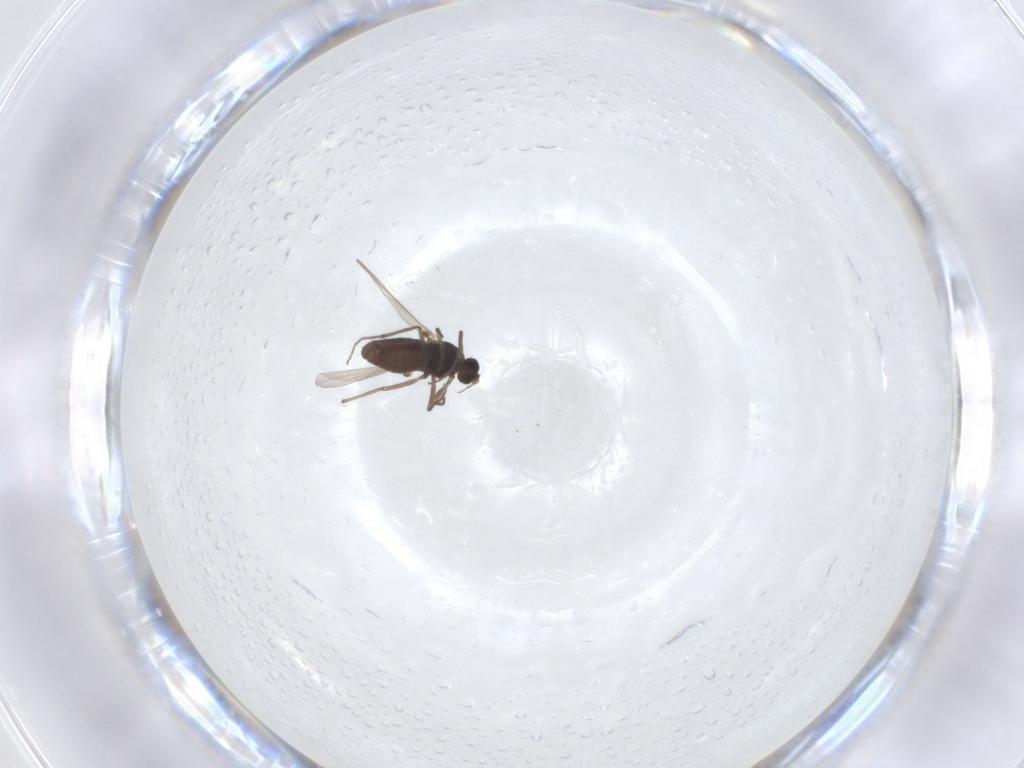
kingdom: Animalia
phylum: Arthropoda
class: Insecta
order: Diptera
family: Chironomidae
